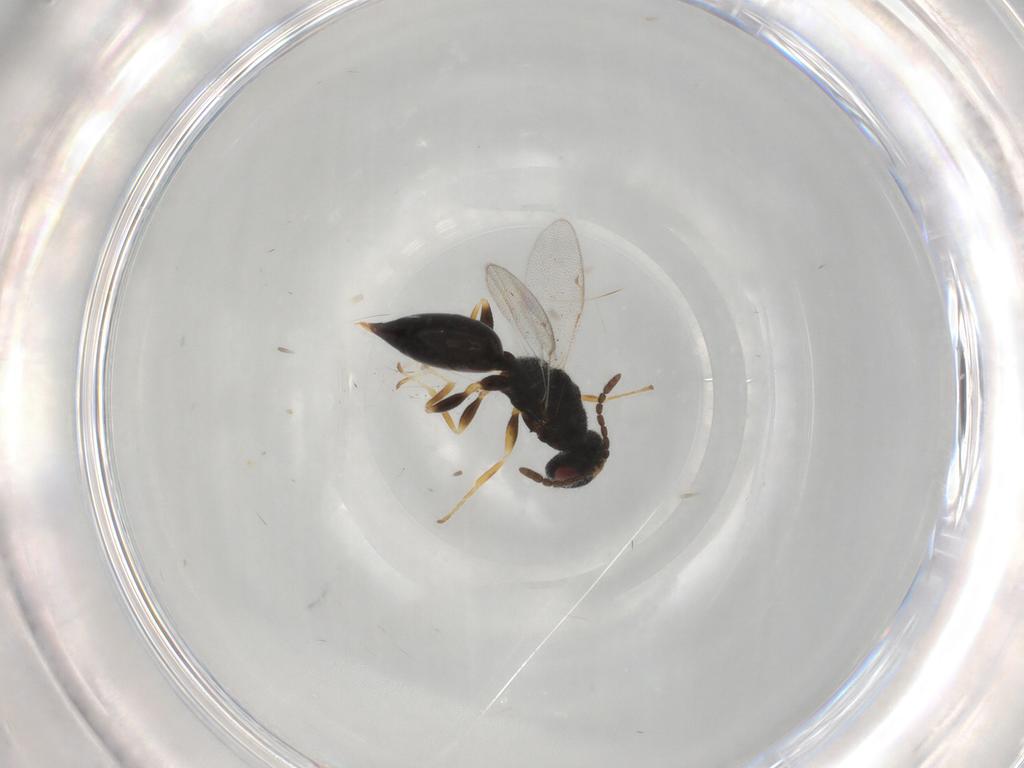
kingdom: Animalia
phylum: Arthropoda
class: Insecta
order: Hymenoptera
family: Eurytomidae
